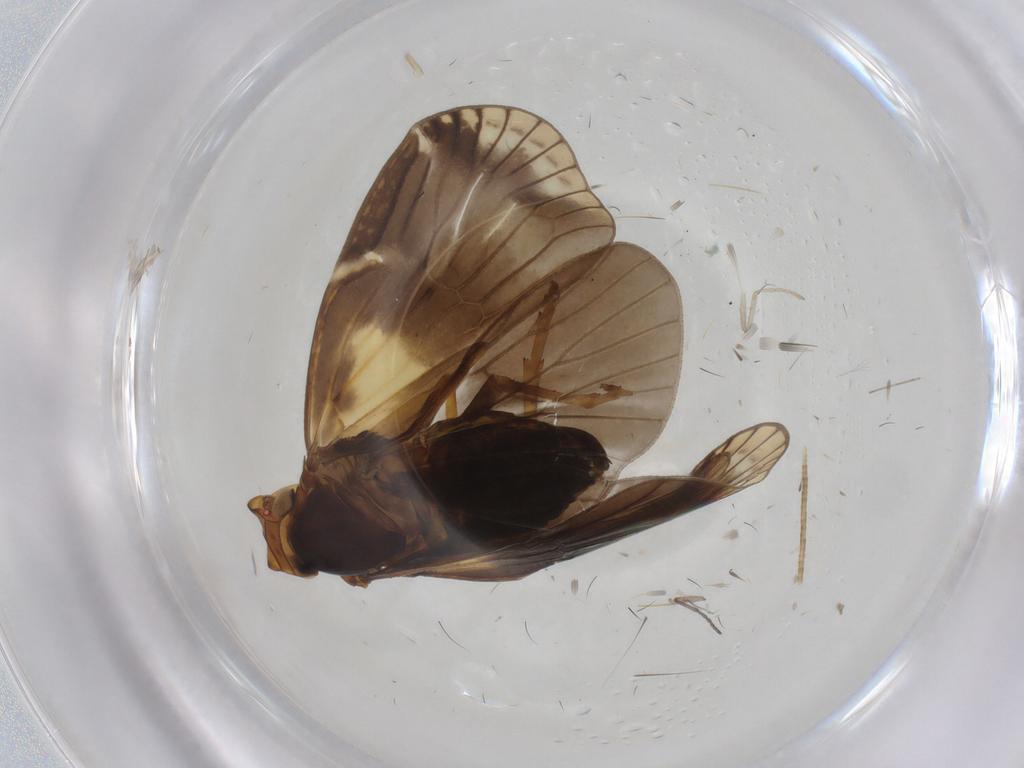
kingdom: Animalia
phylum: Arthropoda
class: Insecta
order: Hemiptera
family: Cixiidae
